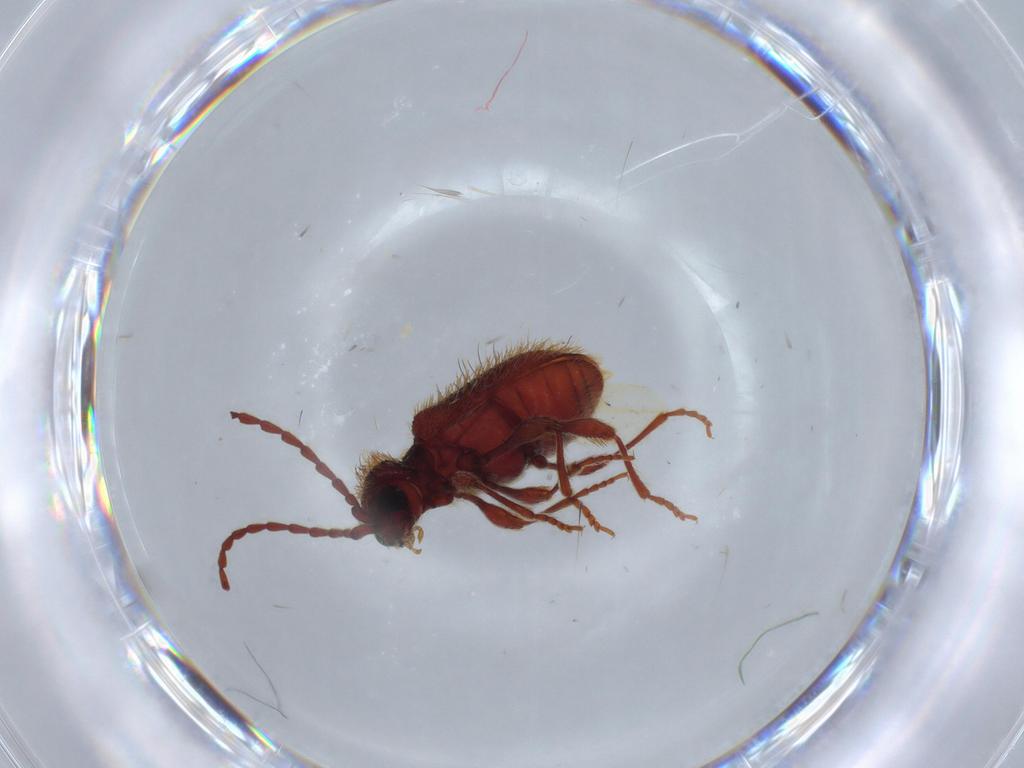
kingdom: Animalia
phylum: Arthropoda
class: Insecta
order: Coleoptera
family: Ptinidae
